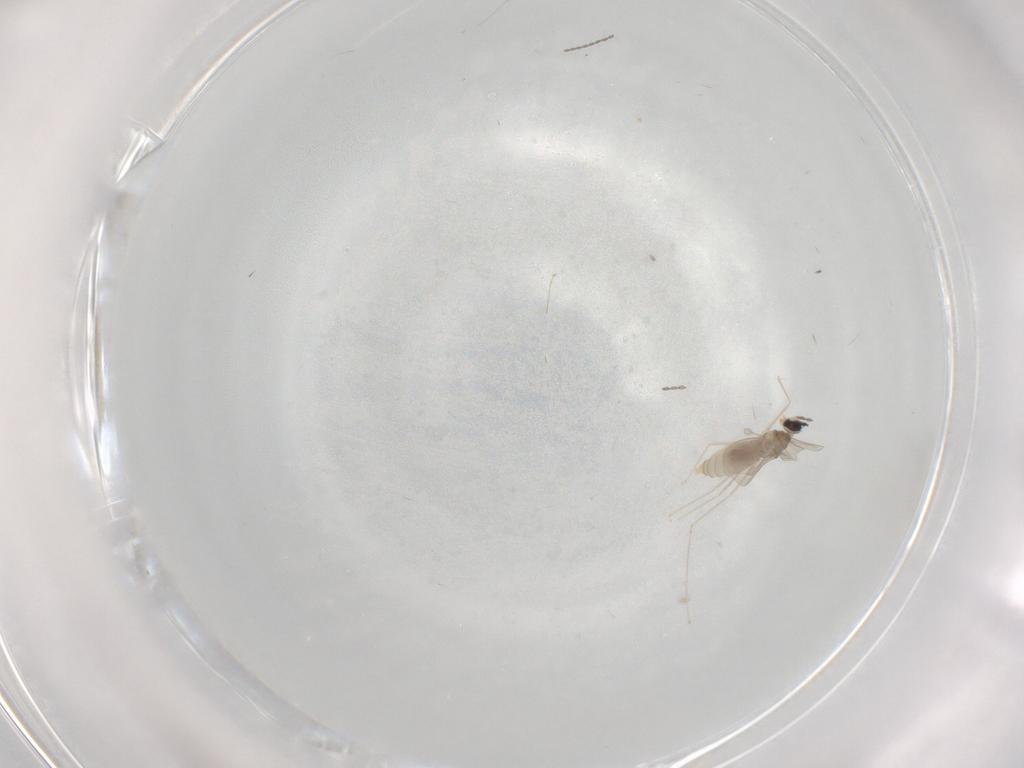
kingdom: Animalia
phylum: Arthropoda
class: Insecta
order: Diptera
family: Cecidomyiidae
